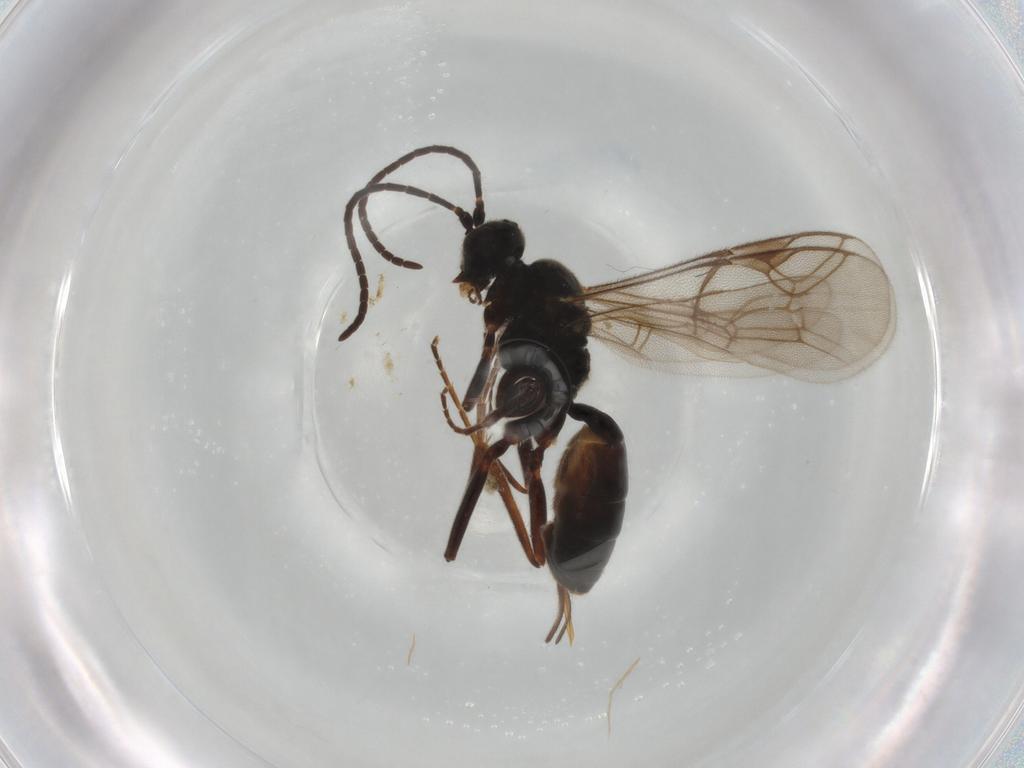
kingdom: Animalia
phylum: Arthropoda
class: Insecta
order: Hymenoptera
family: Ichneumonidae
